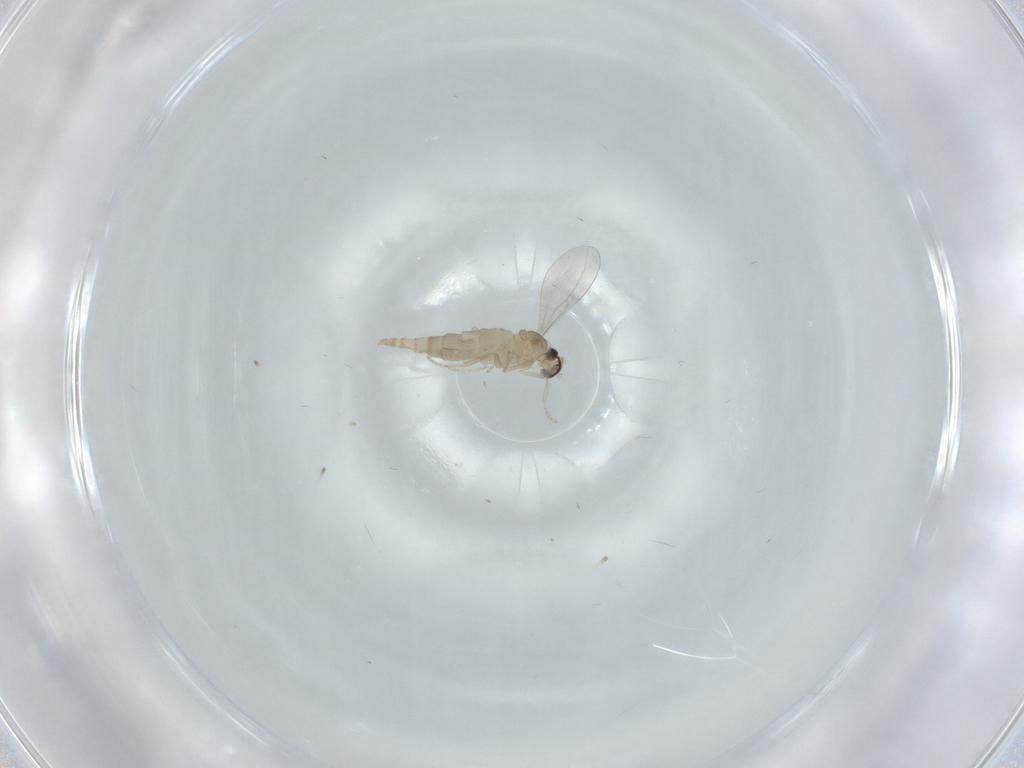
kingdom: Animalia
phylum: Arthropoda
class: Insecta
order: Diptera
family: Cecidomyiidae
